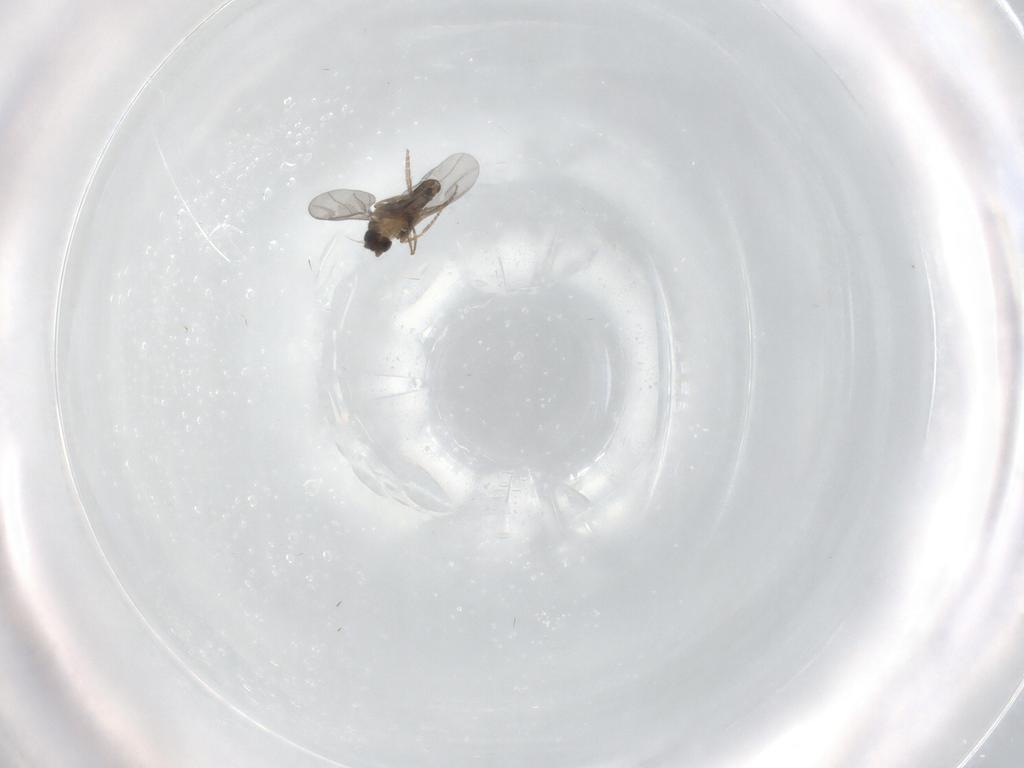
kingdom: Animalia
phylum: Arthropoda
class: Insecta
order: Diptera
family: Limoniidae
